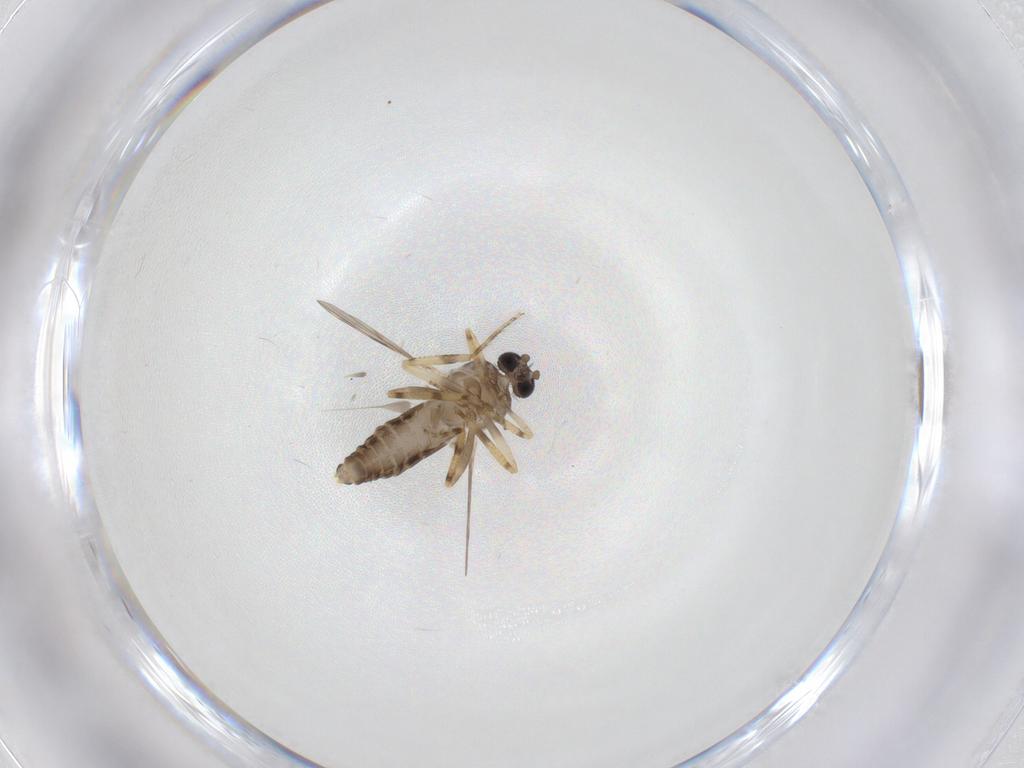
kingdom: Animalia
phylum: Arthropoda
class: Insecta
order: Diptera
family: Ceratopogonidae
